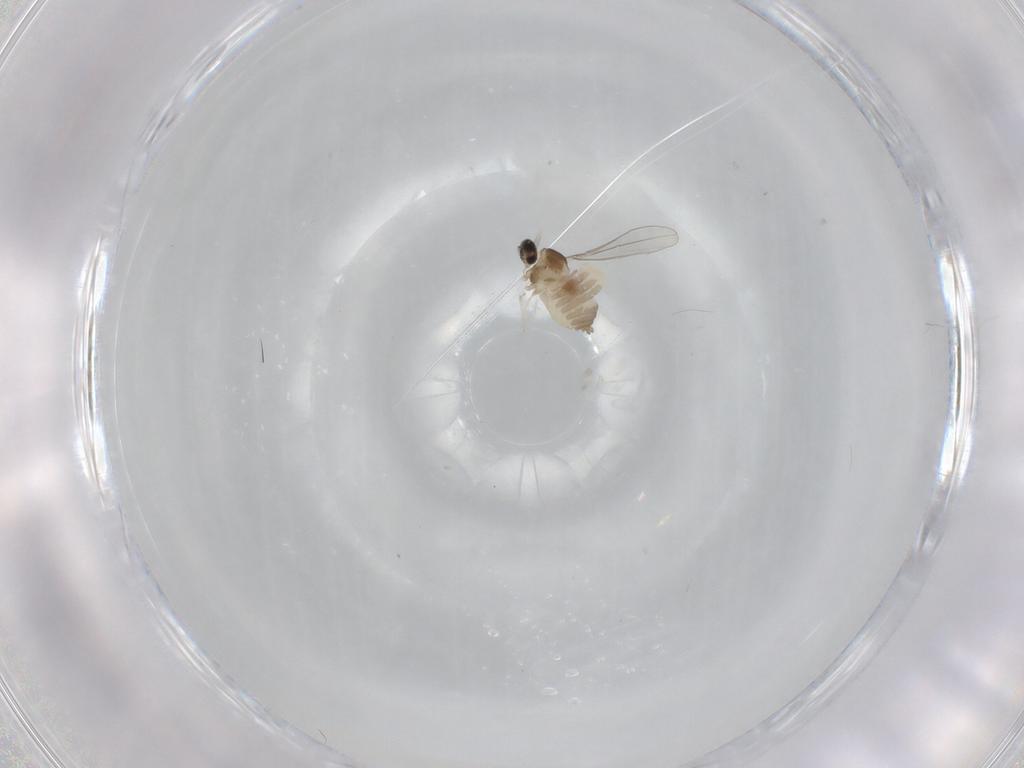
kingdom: Animalia
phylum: Arthropoda
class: Insecta
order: Diptera
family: Cecidomyiidae
